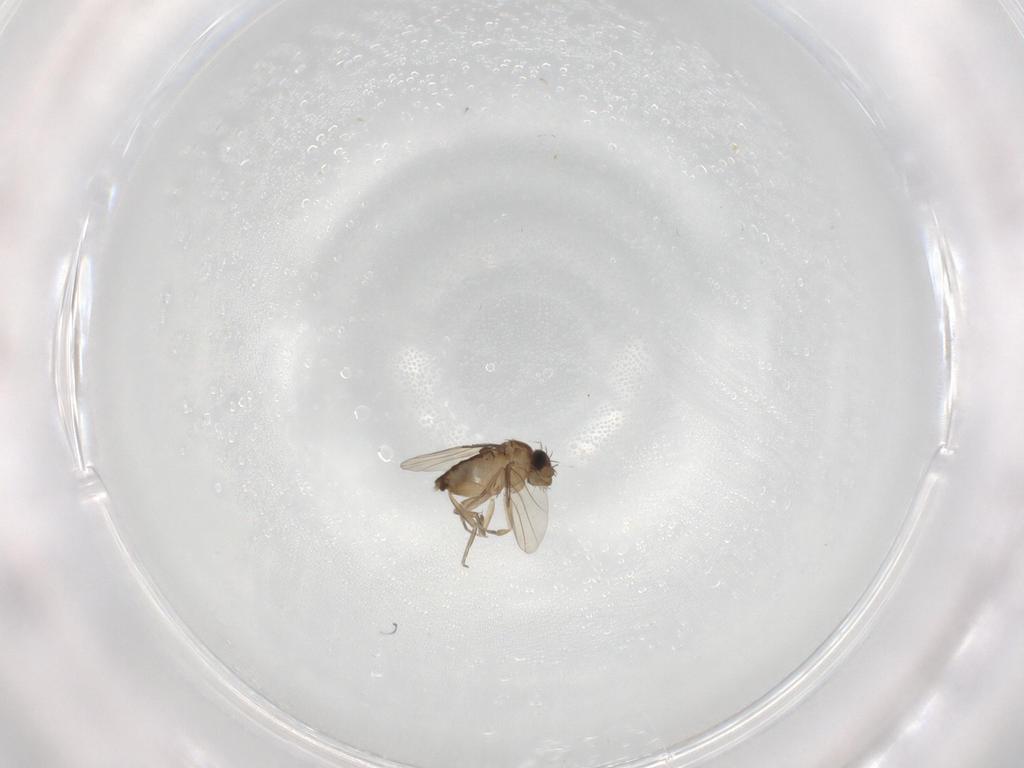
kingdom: Animalia
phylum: Arthropoda
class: Insecta
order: Diptera
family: Phoridae
